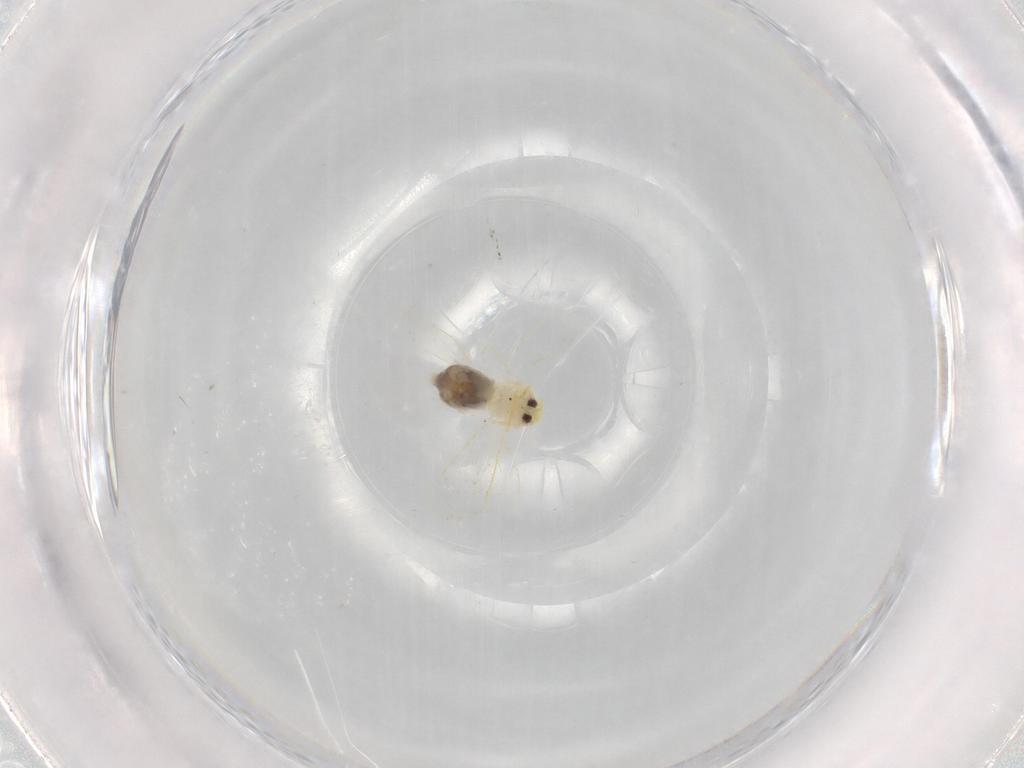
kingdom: Animalia
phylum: Arthropoda
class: Insecta
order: Hemiptera
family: Aleyrodidae
